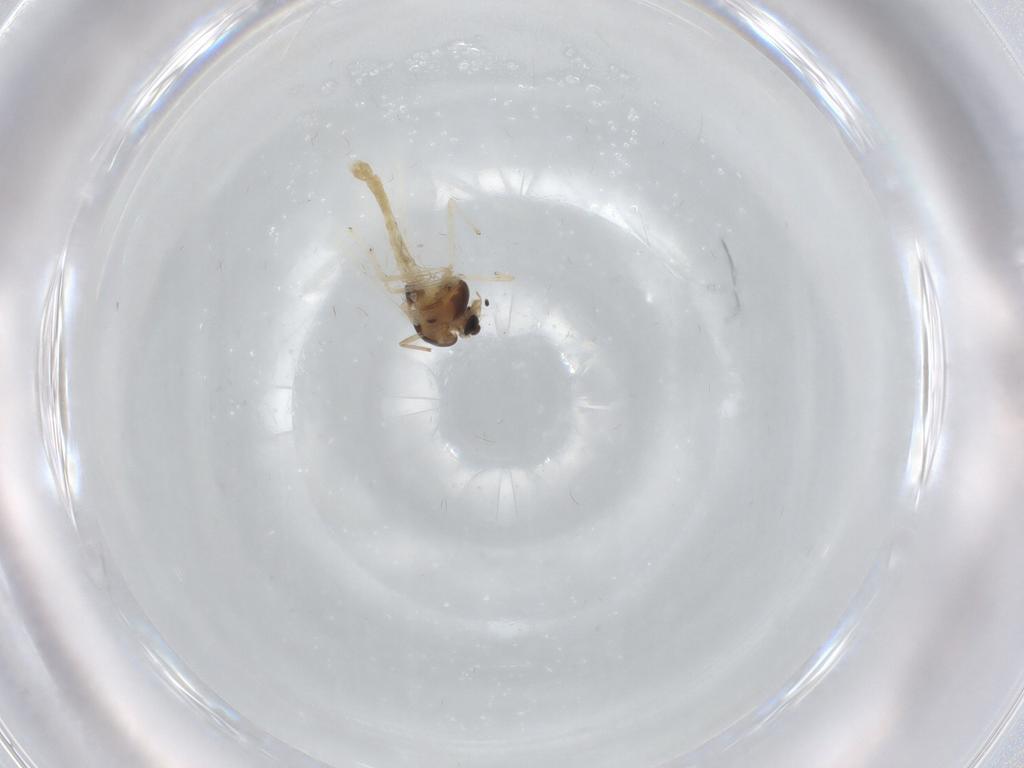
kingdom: Animalia
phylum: Arthropoda
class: Insecta
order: Diptera
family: Chironomidae
